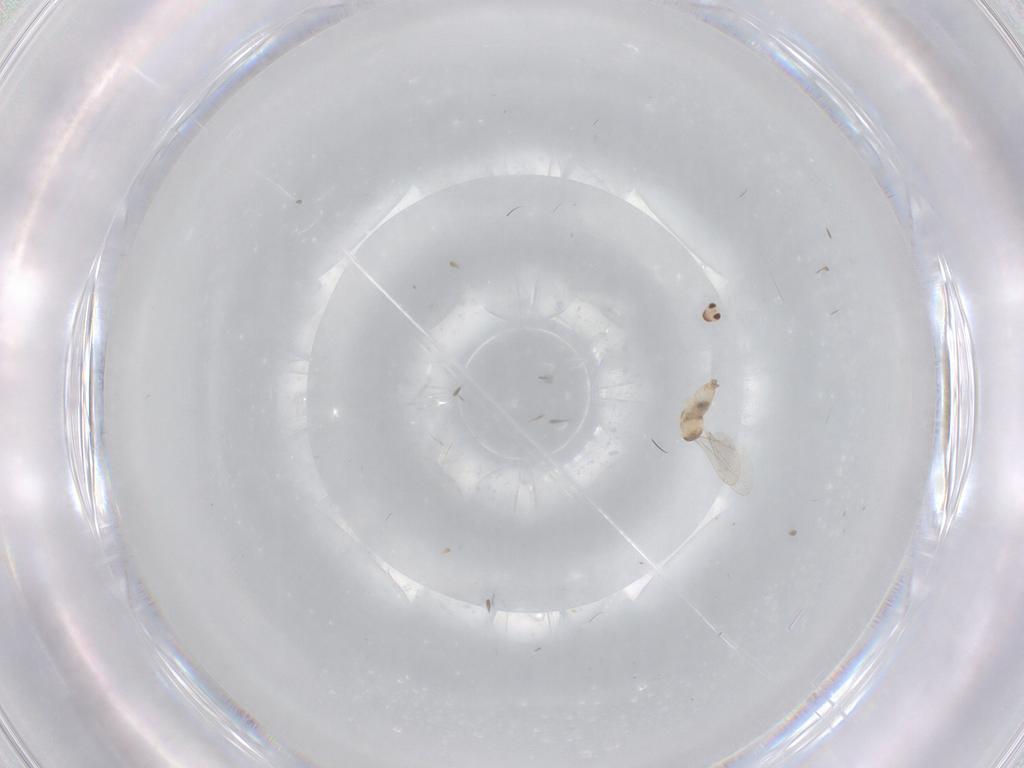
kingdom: Animalia
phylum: Arthropoda
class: Insecta
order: Diptera
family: Cecidomyiidae
